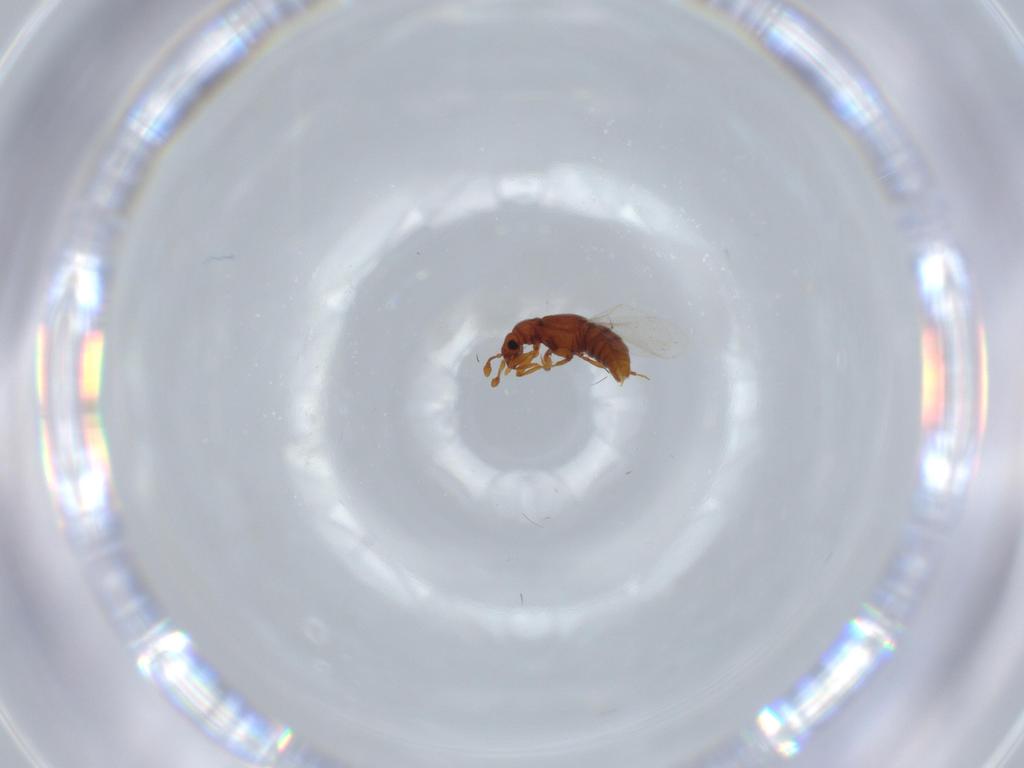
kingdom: Animalia
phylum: Arthropoda
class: Insecta
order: Coleoptera
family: Staphylinidae
